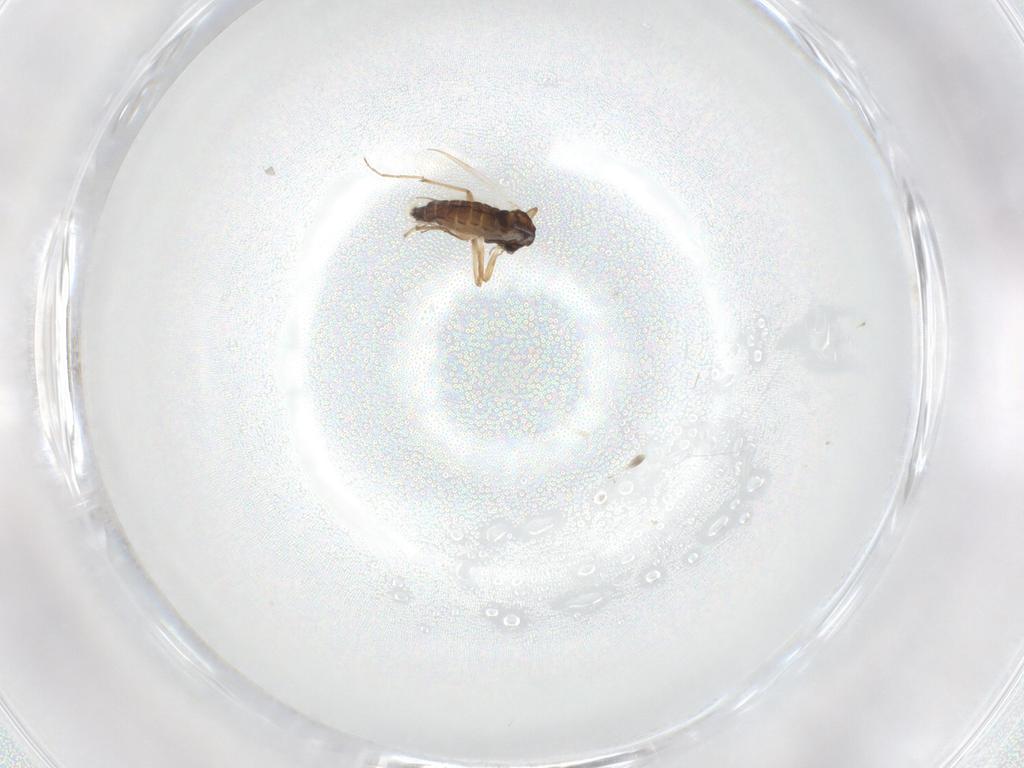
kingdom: Animalia
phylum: Arthropoda
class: Insecta
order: Diptera
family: Chironomidae
